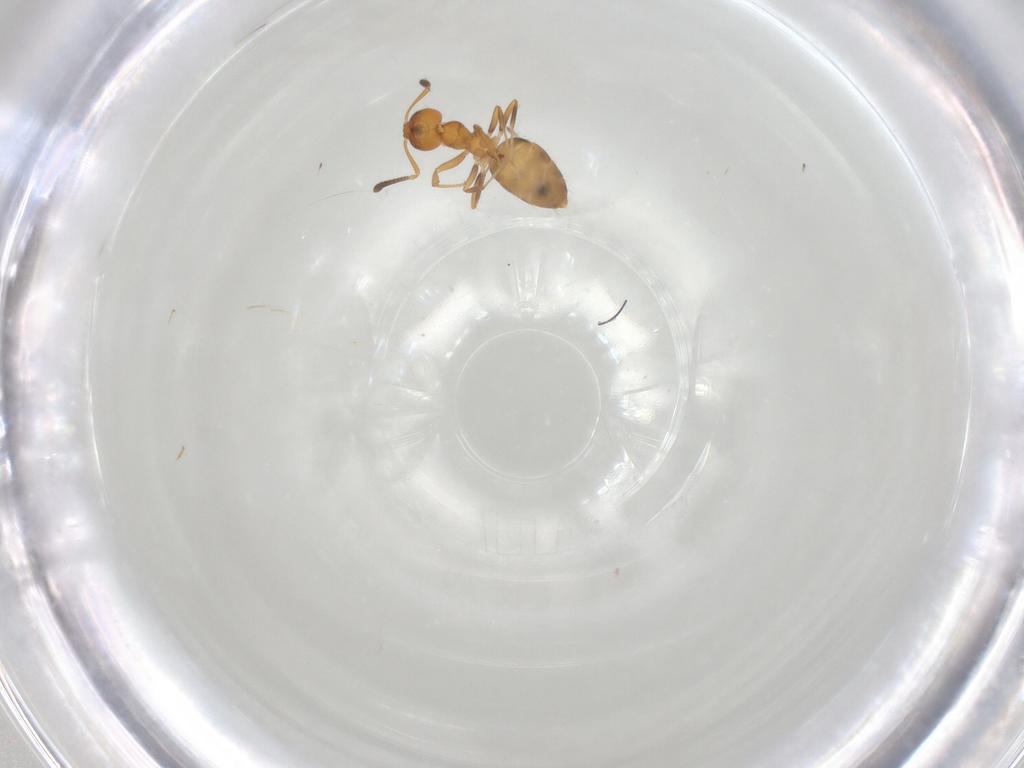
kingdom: Animalia
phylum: Arthropoda
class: Insecta
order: Hymenoptera
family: Formicidae
